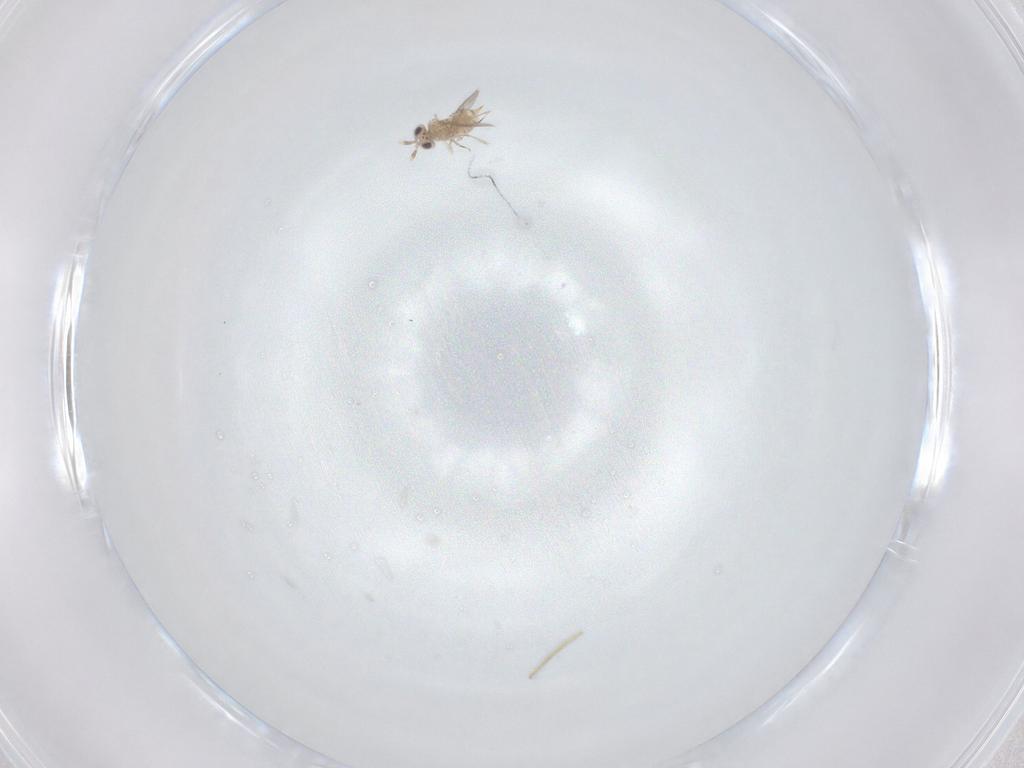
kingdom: Animalia
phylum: Arthropoda
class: Insecta
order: Hymenoptera
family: Aphelinidae
